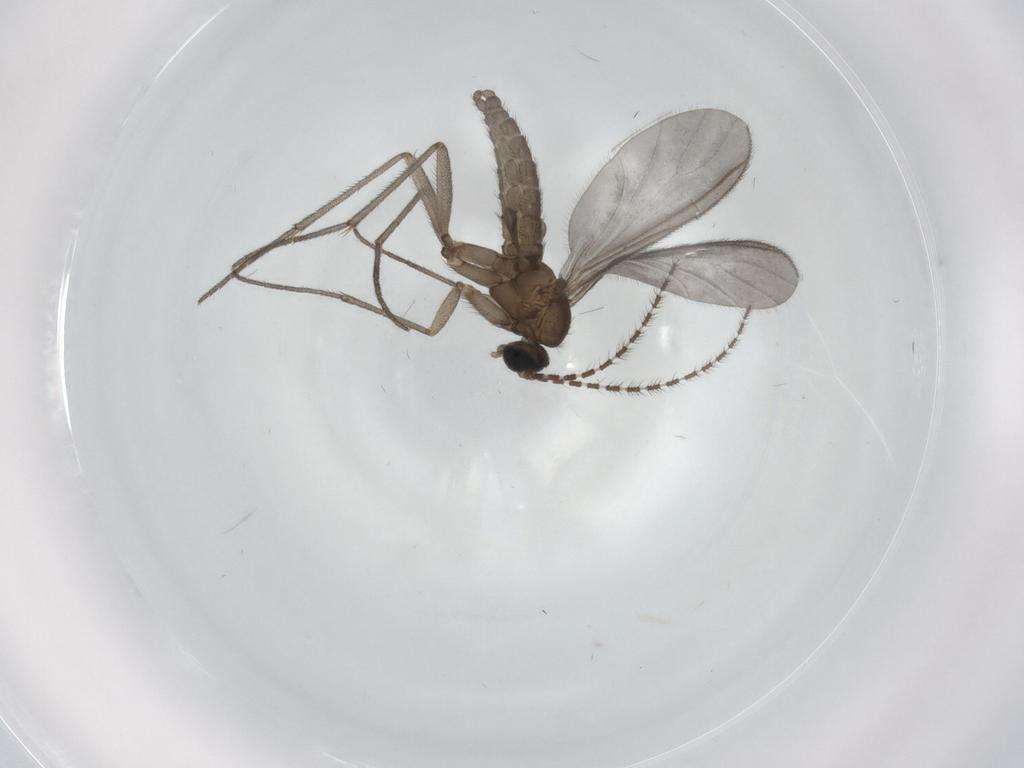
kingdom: Animalia
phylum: Arthropoda
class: Insecta
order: Diptera
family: Sciaridae
